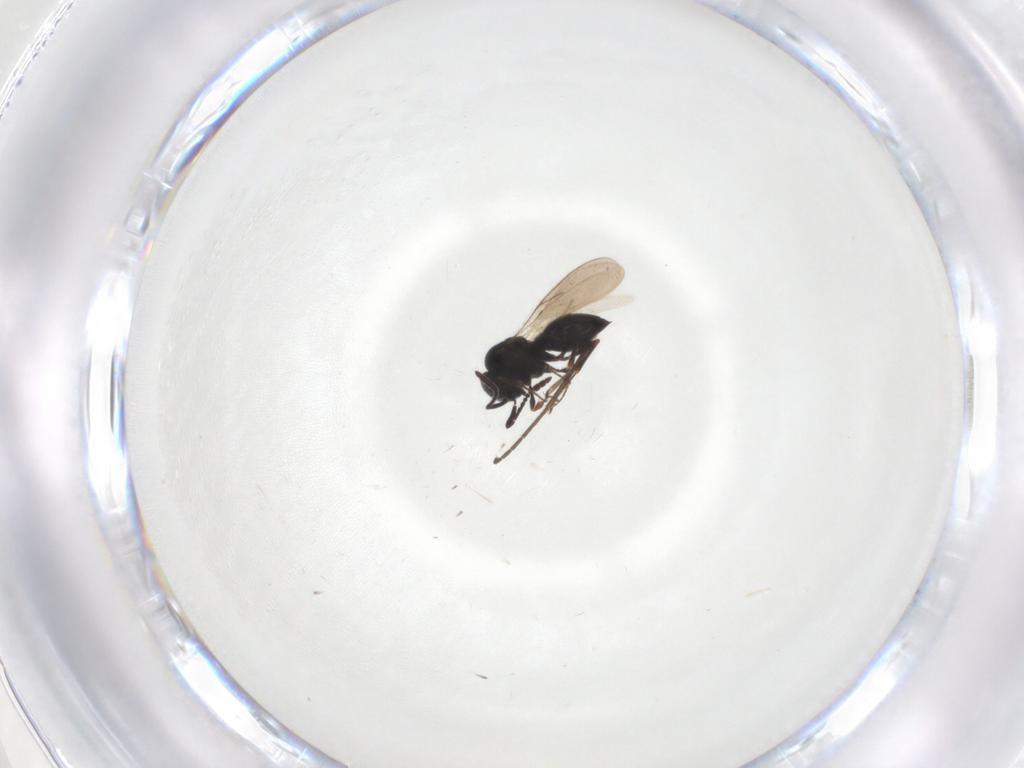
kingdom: Animalia
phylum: Arthropoda
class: Insecta
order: Hymenoptera
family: Scelionidae
